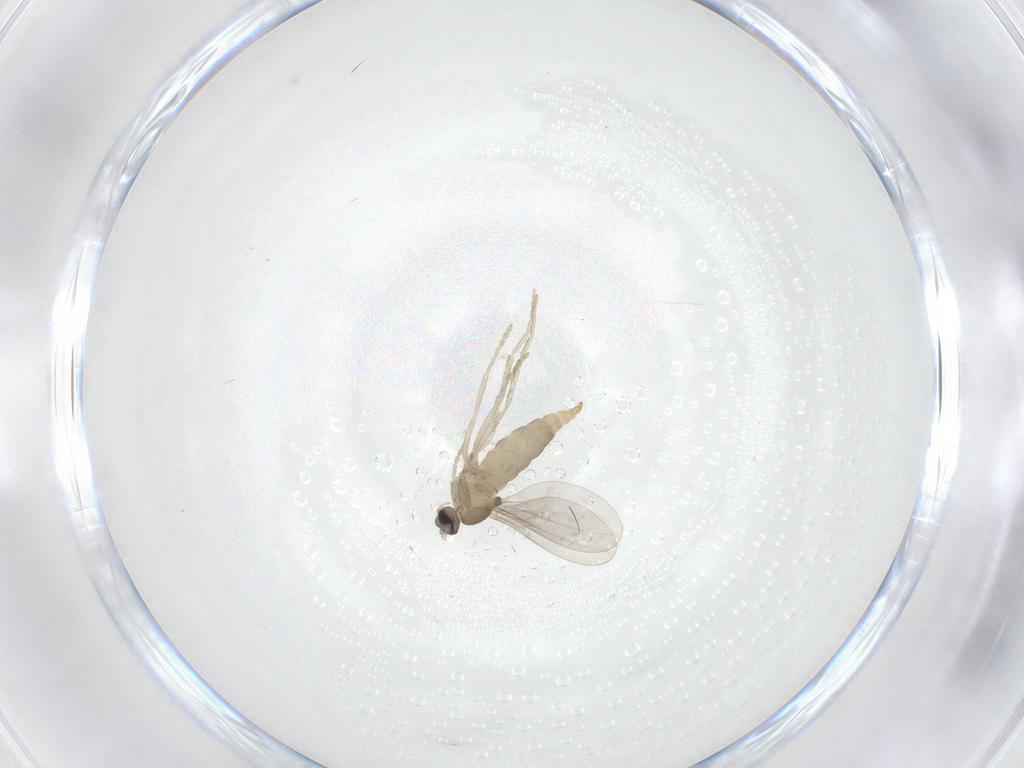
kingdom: Animalia
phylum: Arthropoda
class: Insecta
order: Diptera
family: Cecidomyiidae
